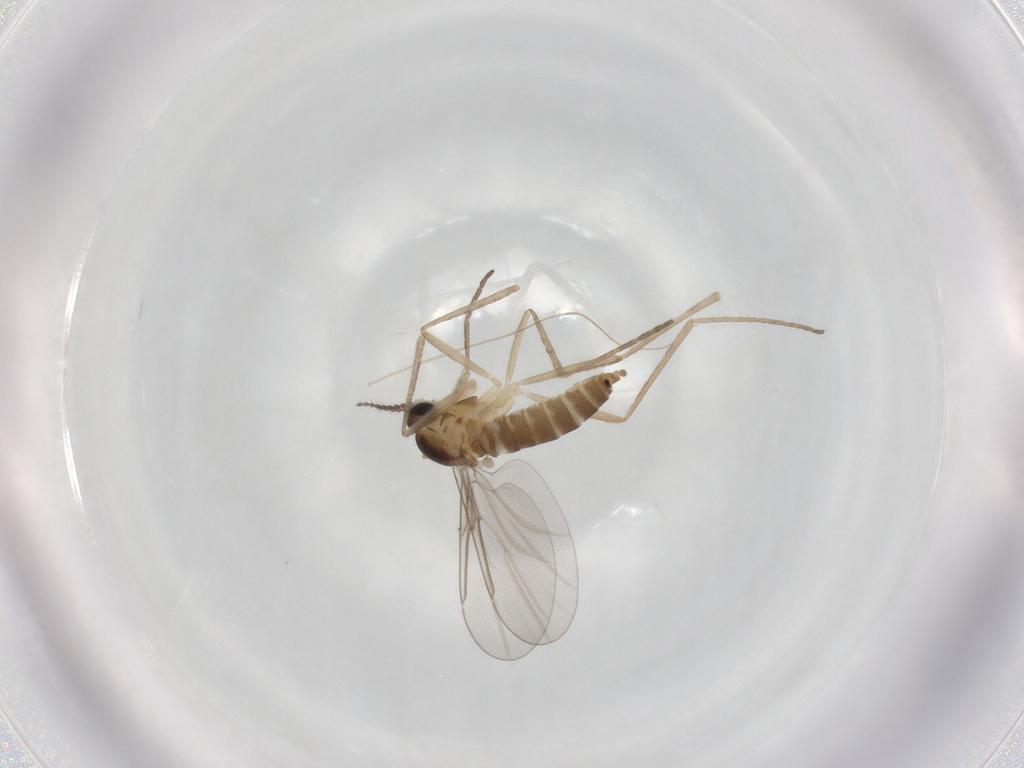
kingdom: Animalia
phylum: Arthropoda
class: Insecta
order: Diptera
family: Cecidomyiidae
